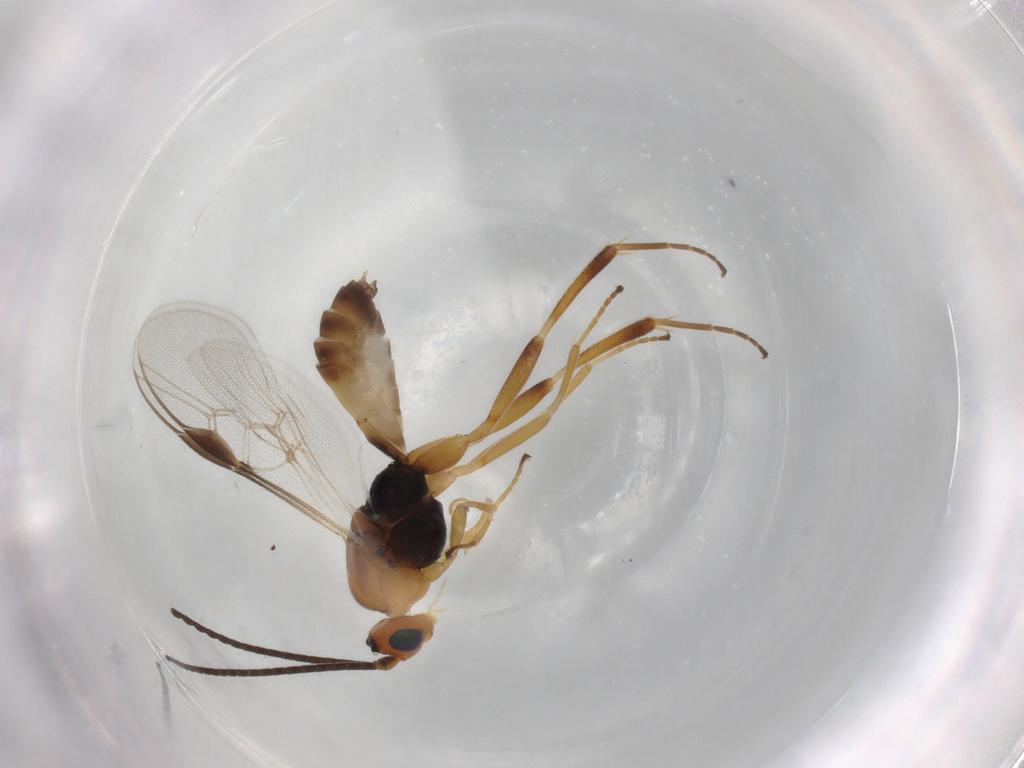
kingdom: Animalia
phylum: Arthropoda
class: Insecta
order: Hymenoptera
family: Braconidae
